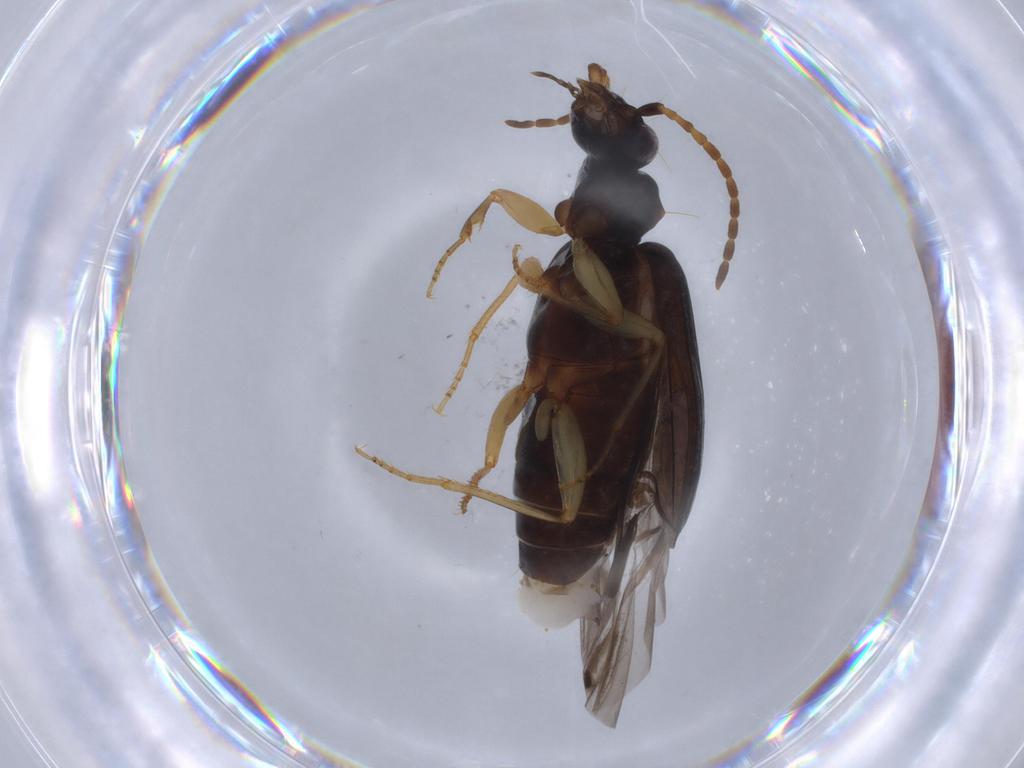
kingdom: Animalia
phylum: Arthropoda
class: Insecta
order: Coleoptera
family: Carabidae
